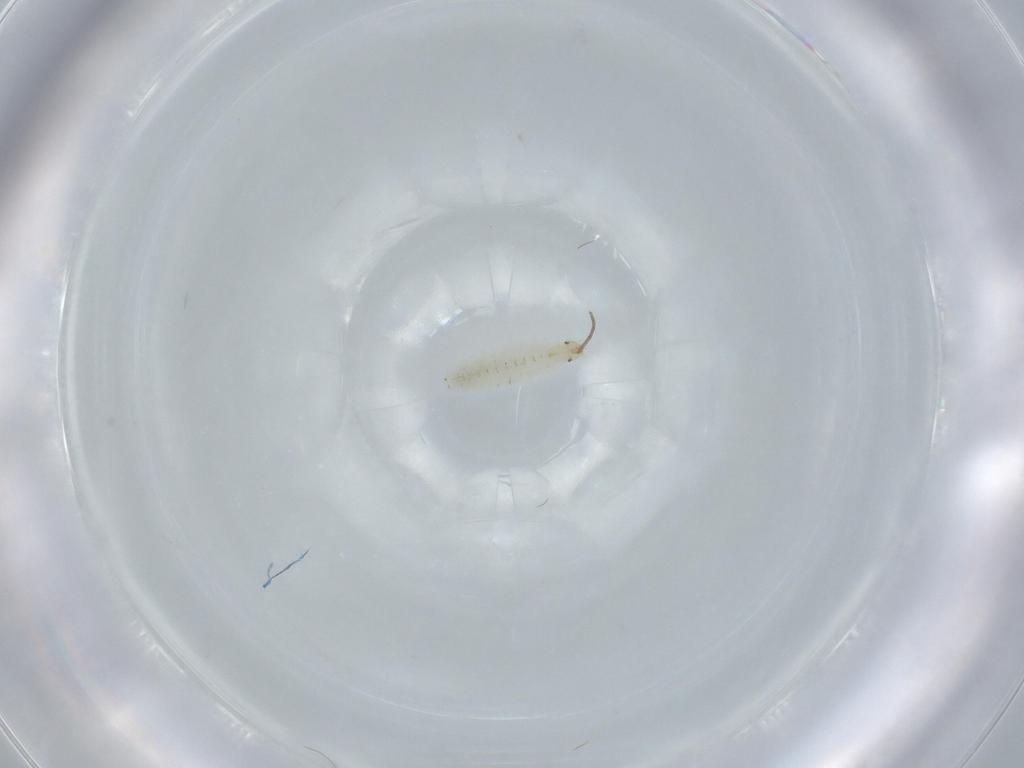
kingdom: Animalia
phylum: Arthropoda
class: Insecta
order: Diptera
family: Stratiomyidae
